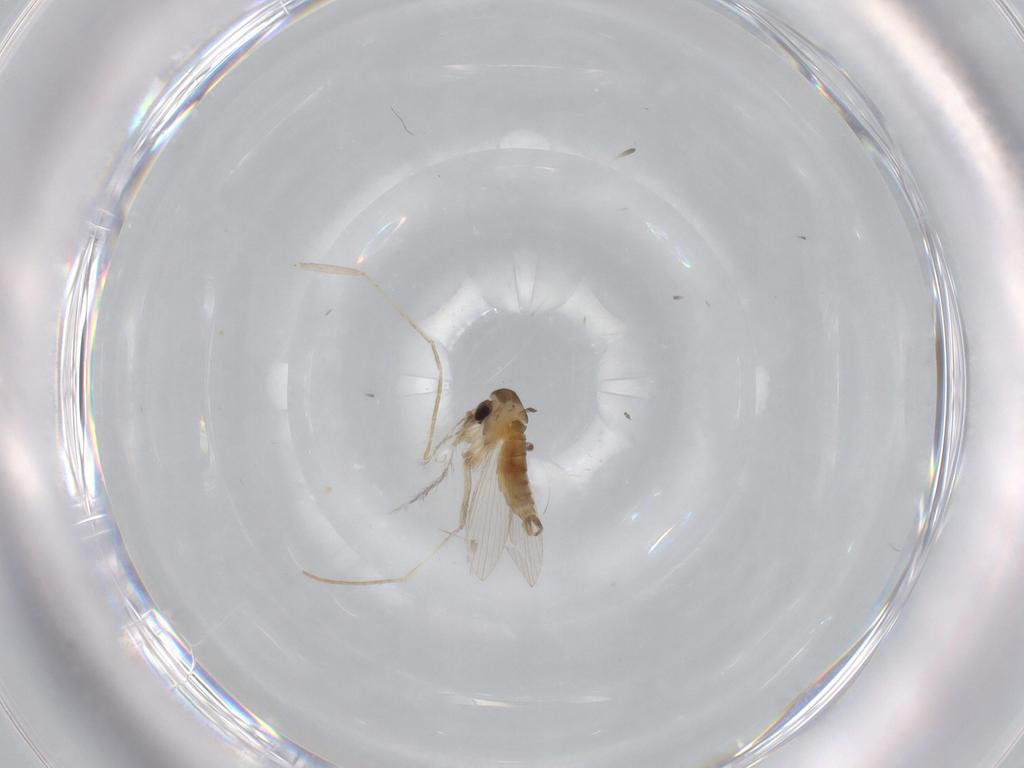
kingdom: Animalia
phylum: Arthropoda
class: Insecta
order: Diptera
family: Psychodidae
